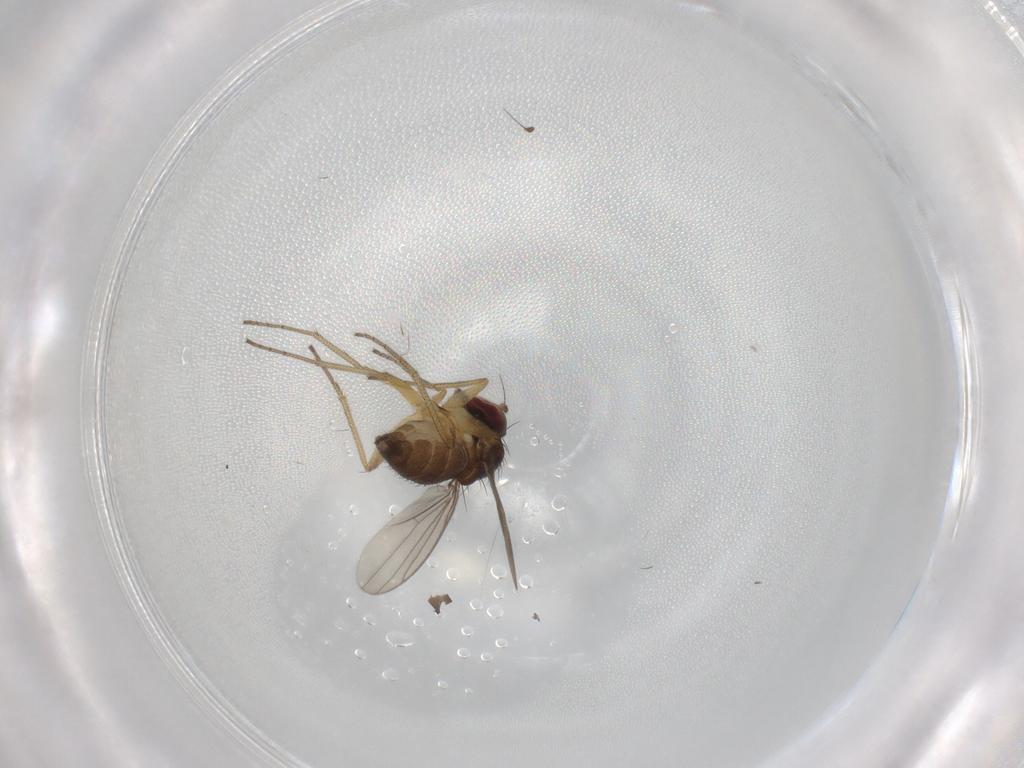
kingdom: Animalia
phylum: Arthropoda
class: Insecta
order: Diptera
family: Dolichopodidae
